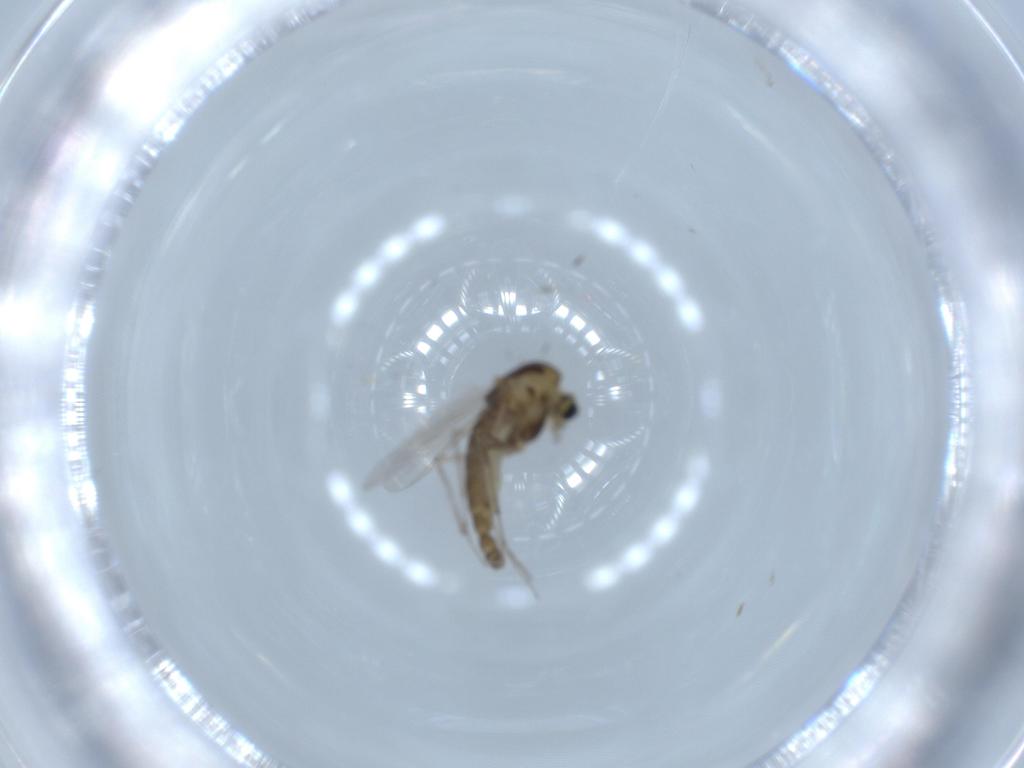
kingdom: Animalia
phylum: Arthropoda
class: Insecta
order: Diptera
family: Chironomidae
